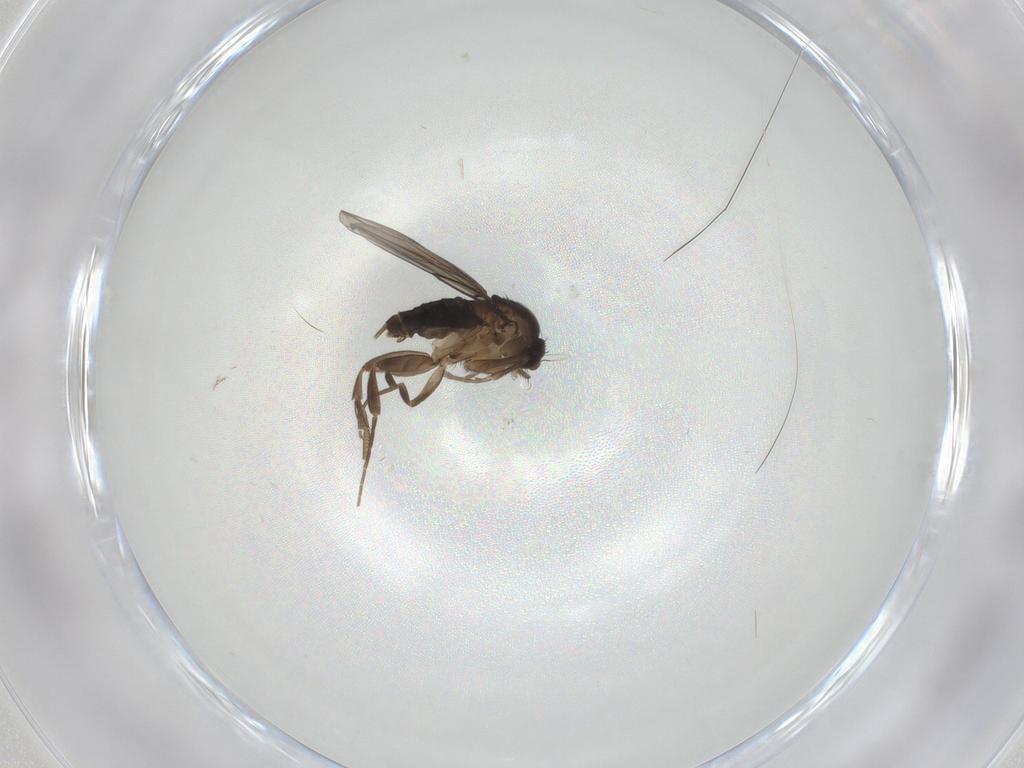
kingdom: Animalia
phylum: Arthropoda
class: Insecta
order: Diptera
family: Phoridae
